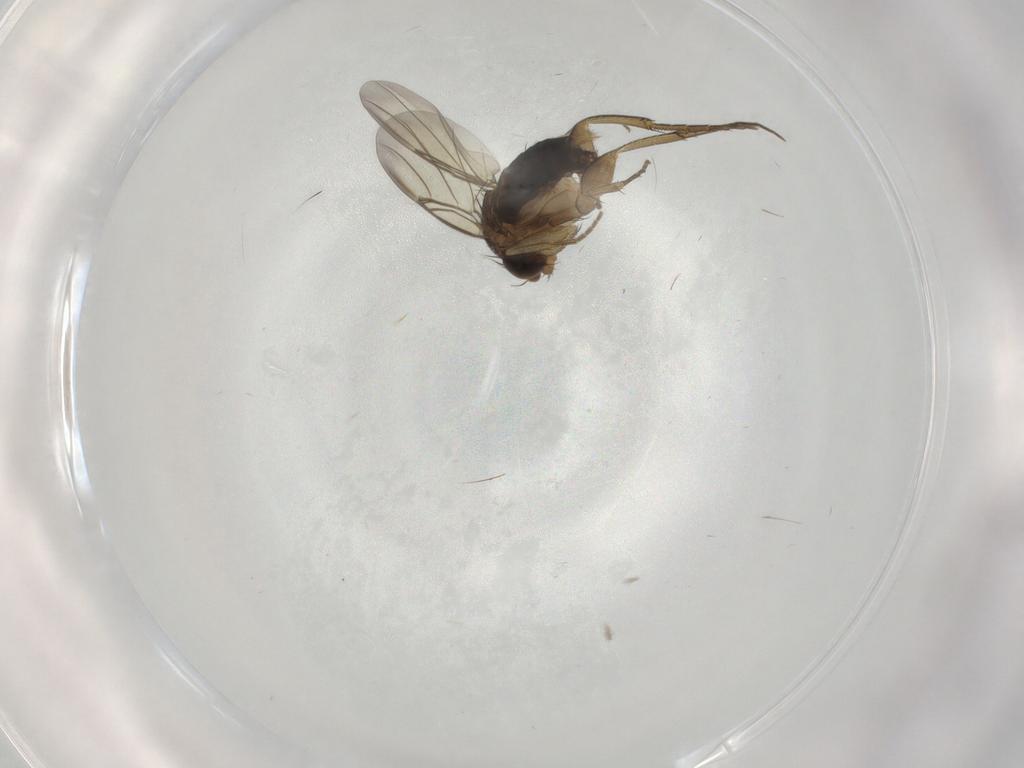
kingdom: Animalia
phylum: Arthropoda
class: Insecta
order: Diptera
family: Phoridae
